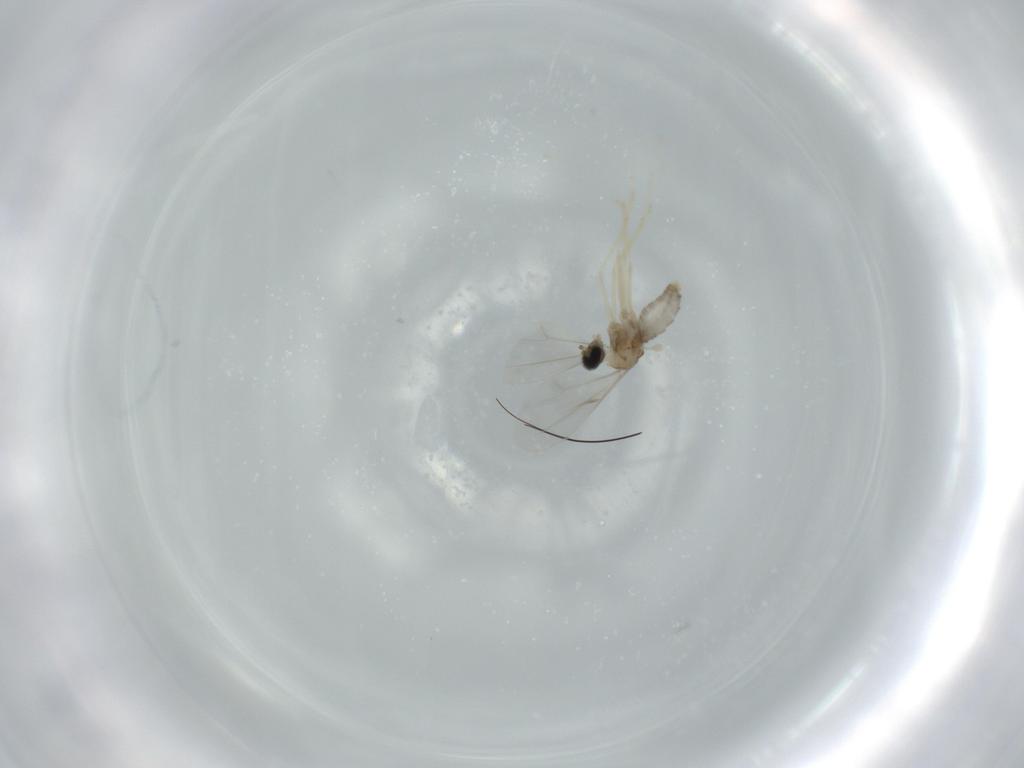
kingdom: Animalia
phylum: Arthropoda
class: Insecta
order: Diptera
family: Cecidomyiidae
